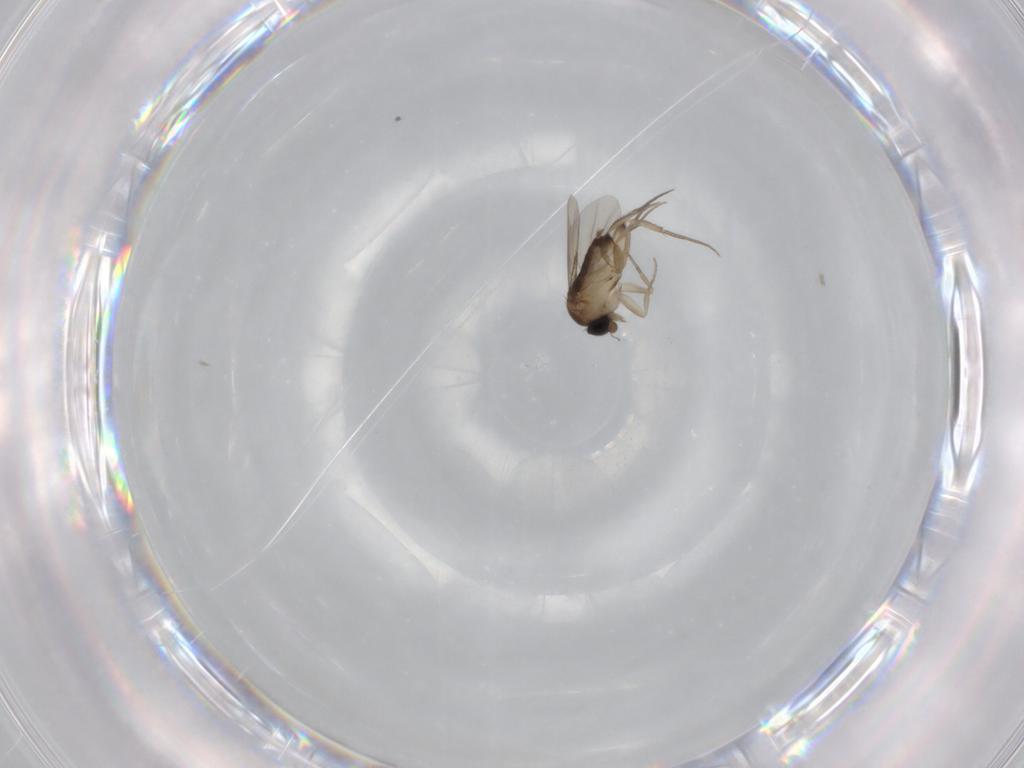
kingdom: Animalia
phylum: Arthropoda
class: Insecta
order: Diptera
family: Phoridae
